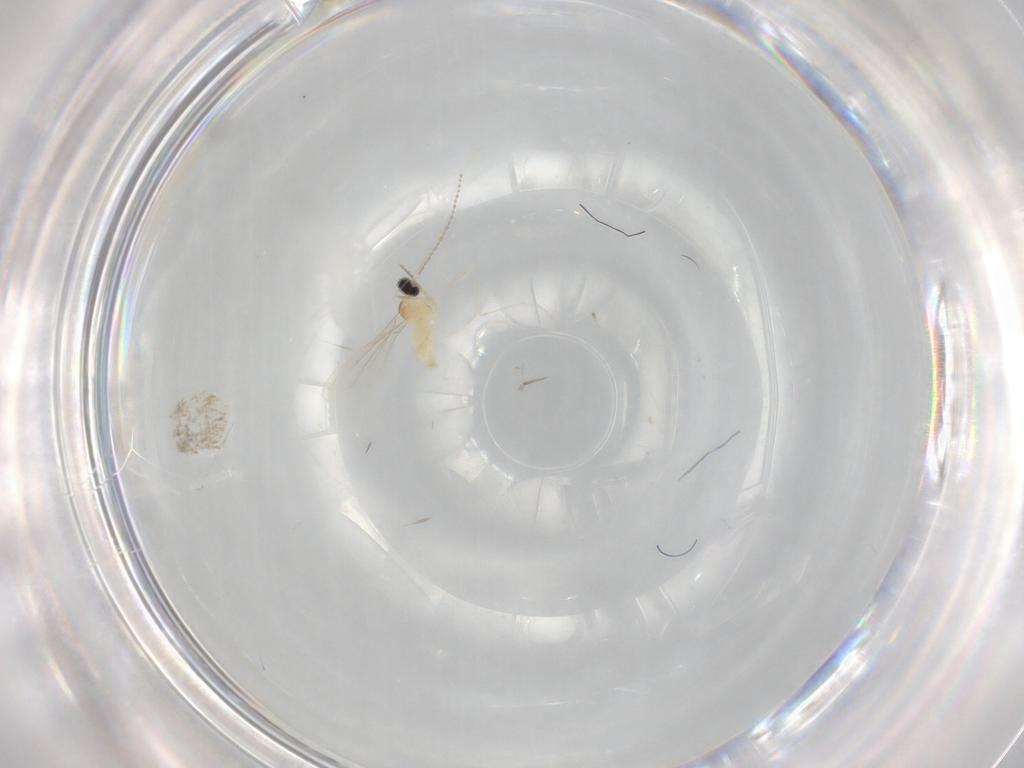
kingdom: Animalia
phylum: Arthropoda
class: Insecta
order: Diptera
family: Cecidomyiidae
